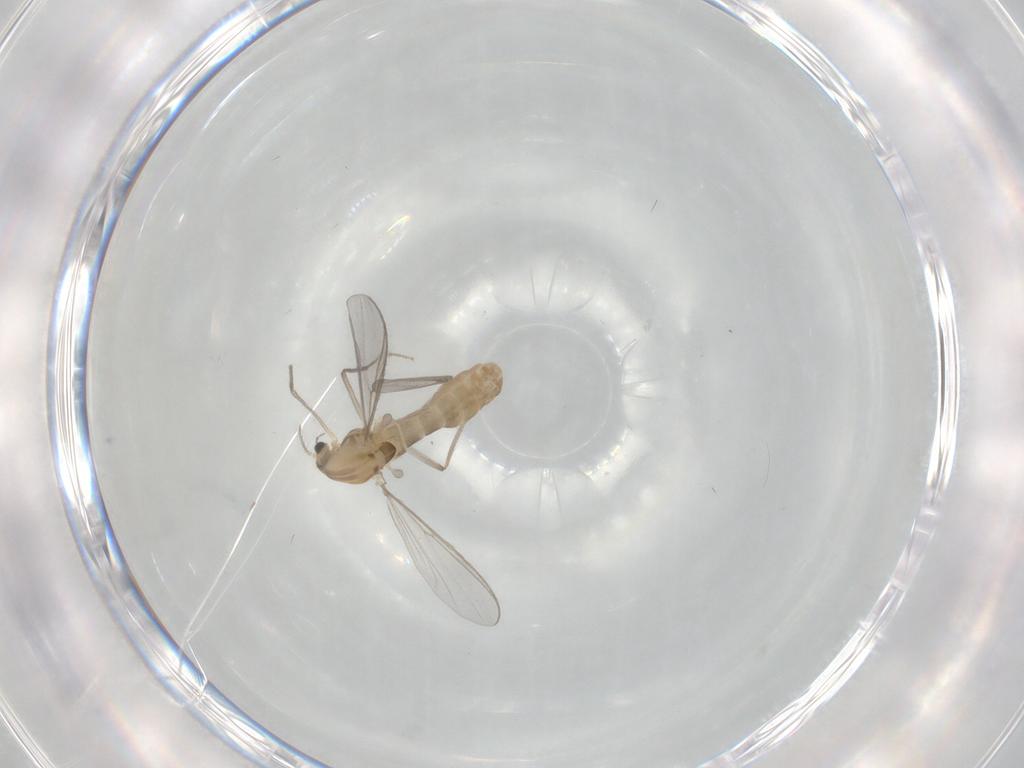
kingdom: Animalia
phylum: Arthropoda
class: Insecta
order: Diptera
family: Chironomidae
